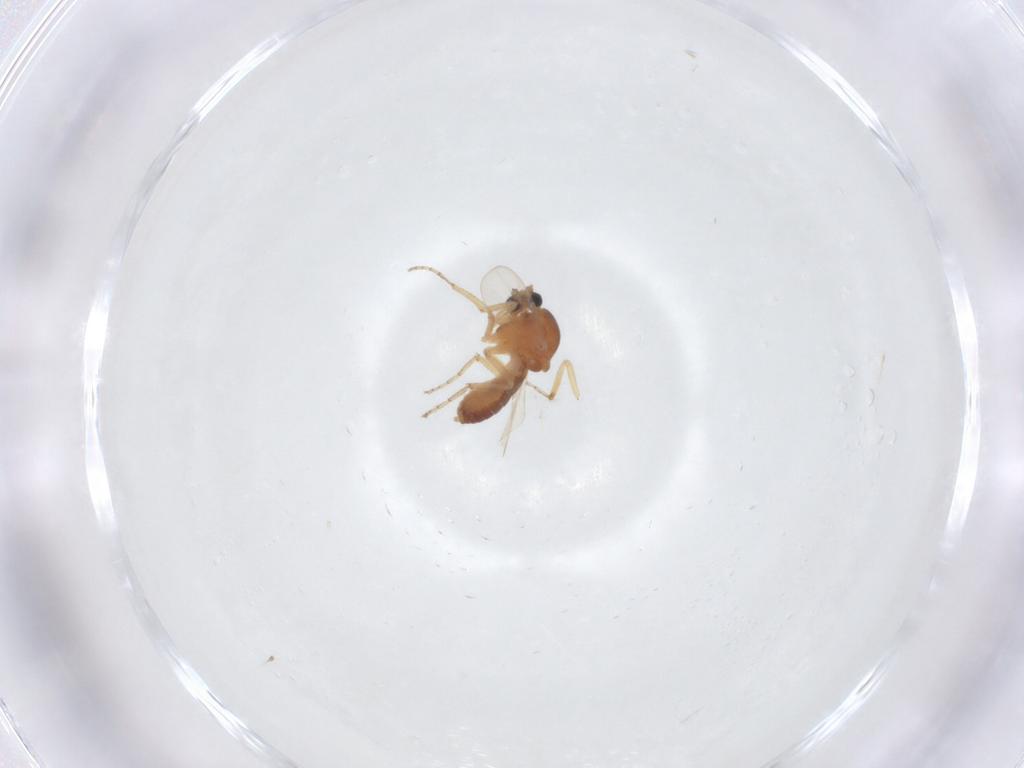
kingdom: Animalia
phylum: Arthropoda
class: Insecta
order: Diptera
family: Ceratopogonidae
